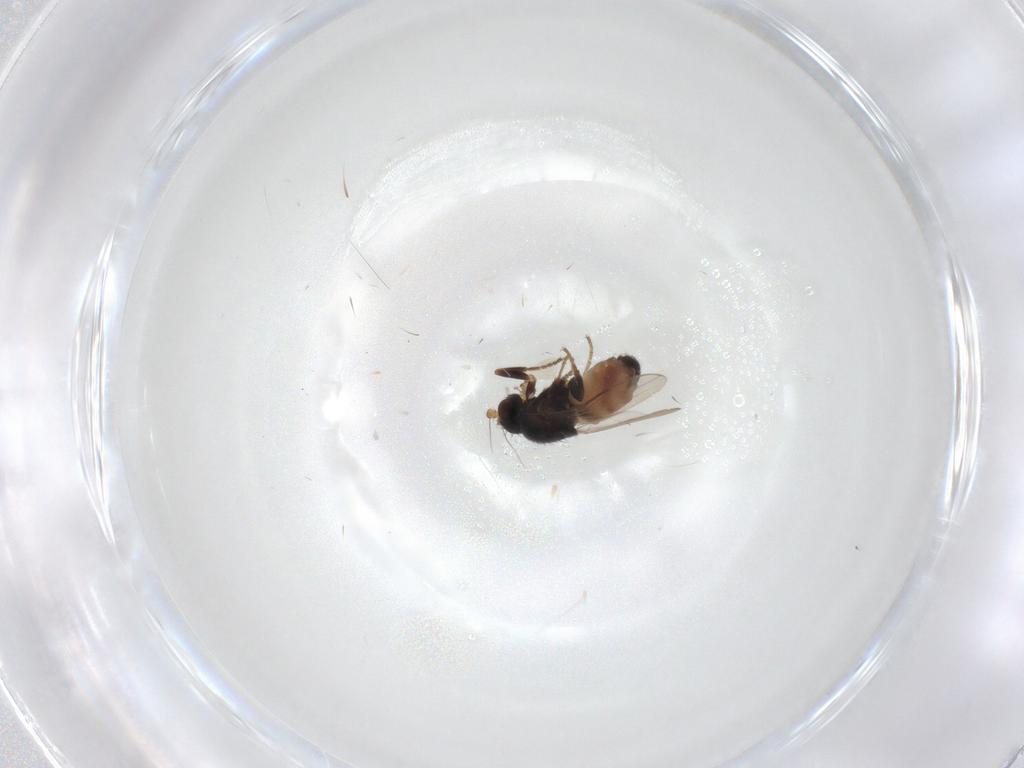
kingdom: Animalia
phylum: Arthropoda
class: Insecta
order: Diptera
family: Sphaeroceridae
